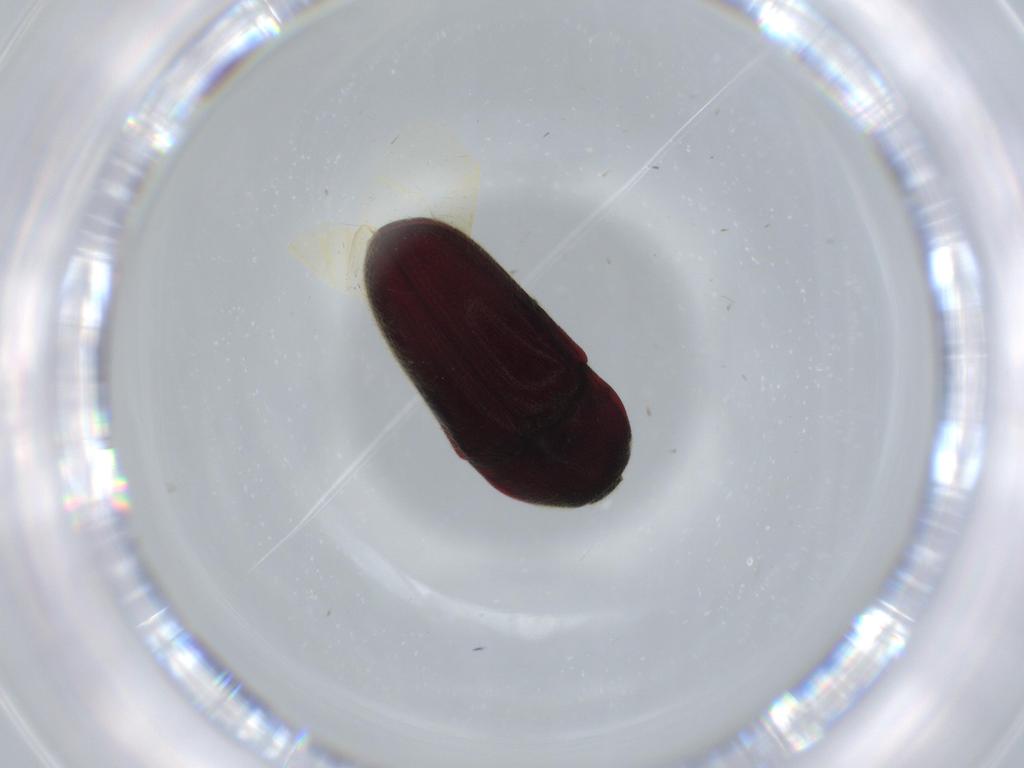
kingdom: Animalia
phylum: Arthropoda
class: Insecta
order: Coleoptera
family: Throscidae
